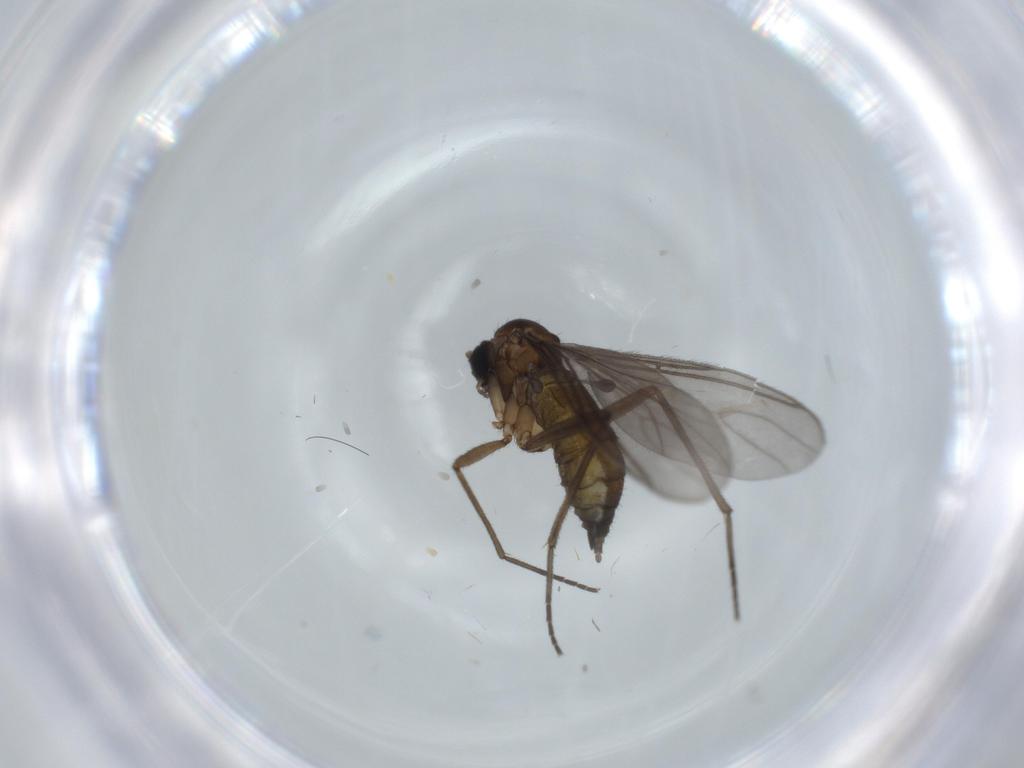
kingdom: Animalia
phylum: Arthropoda
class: Insecta
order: Diptera
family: Sciaridae
